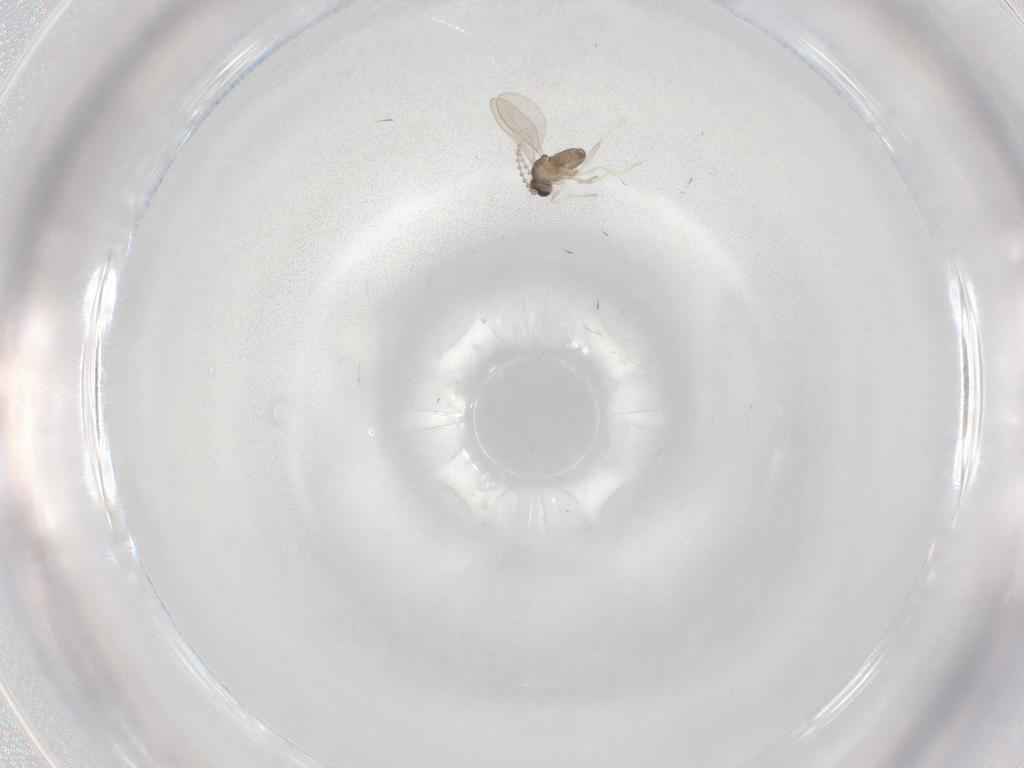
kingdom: Animalia
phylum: Arthropoda
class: Insecta
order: Diptera
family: Cecidomyiidae
